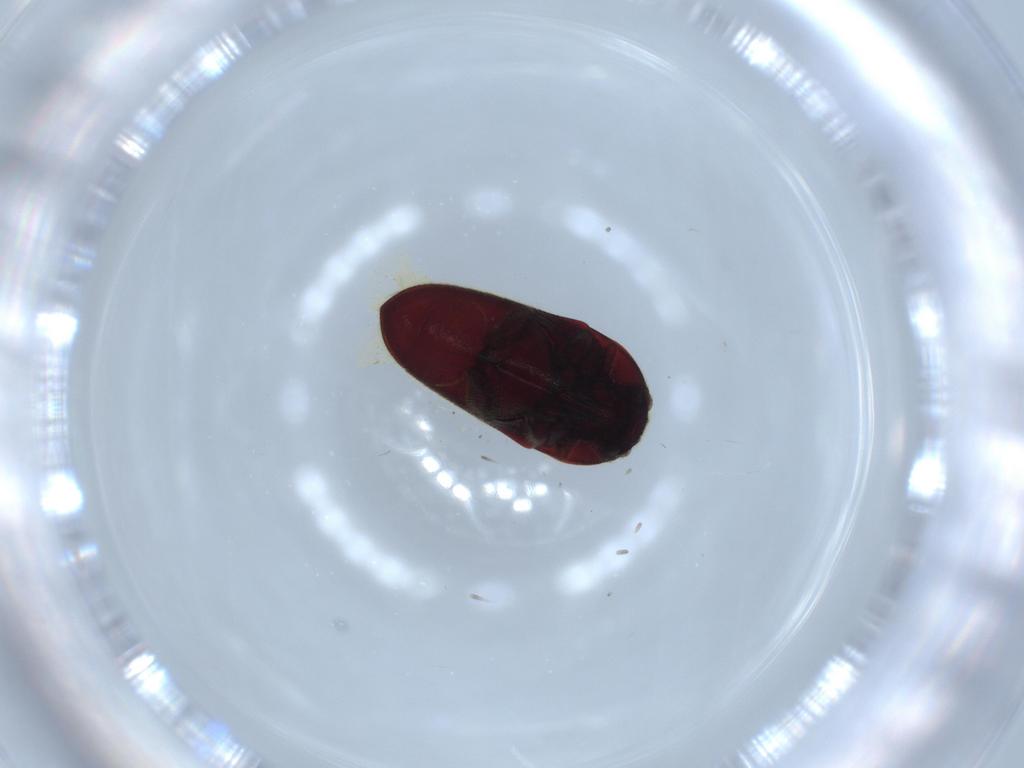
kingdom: Animalia
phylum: Arthropoda
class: Insecta
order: Coleoptera
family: Throscidae
